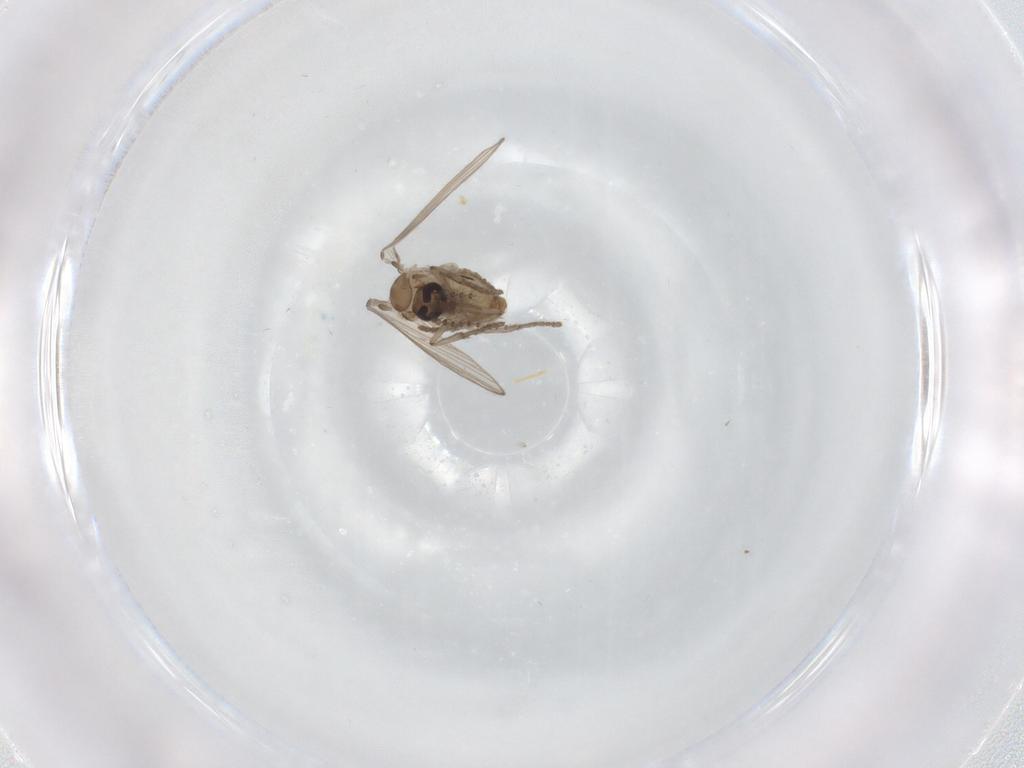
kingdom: Animalia
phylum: Arthropoda
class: Insecta
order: Diptera
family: Psychodidae
